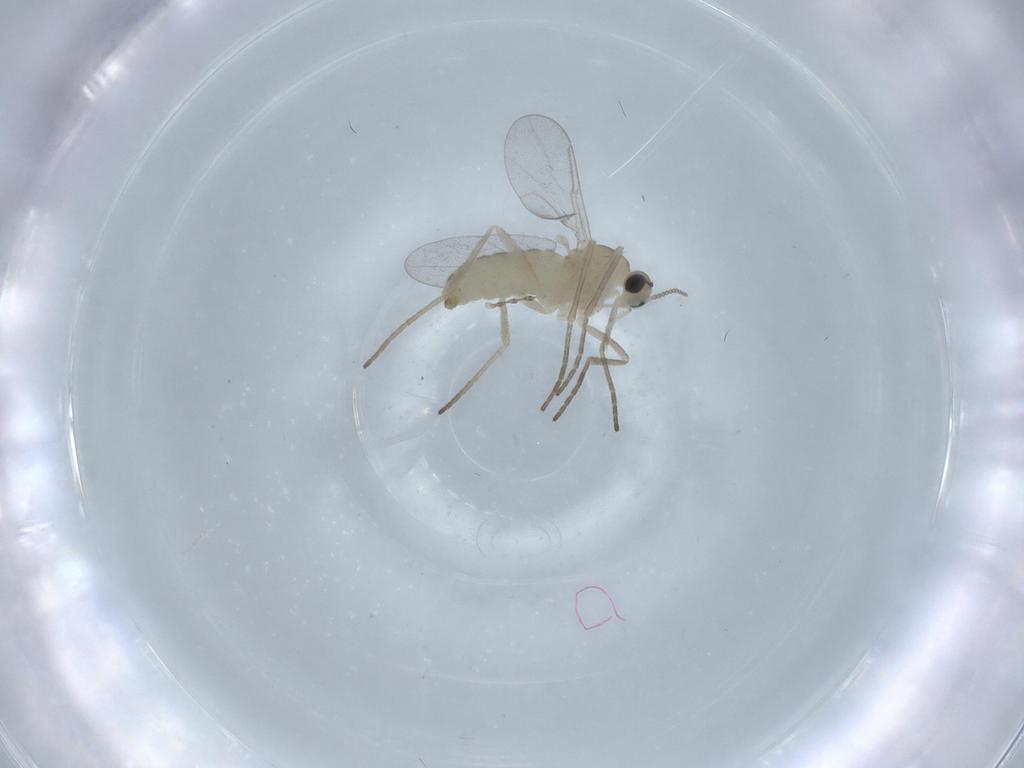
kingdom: Animalia
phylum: Arthropoda
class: Insecta
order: Diptera
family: Chironomidae
